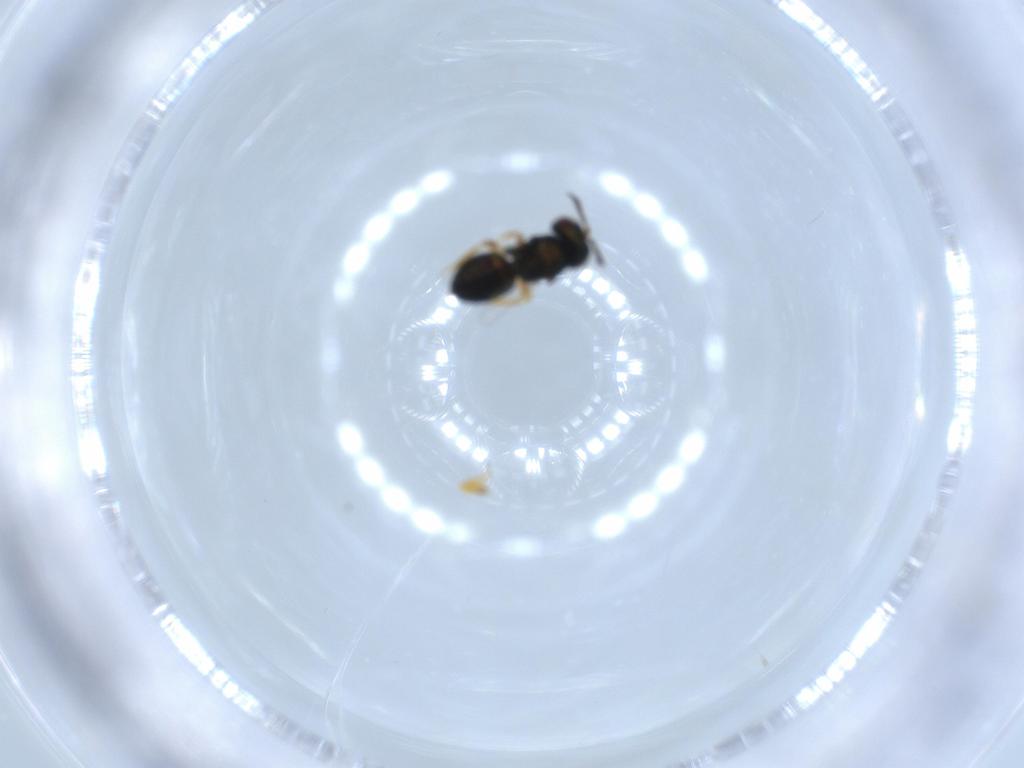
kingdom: Animalia
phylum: Arthropoda
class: Insecta
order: Hymenoptera
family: Pteromalidae
